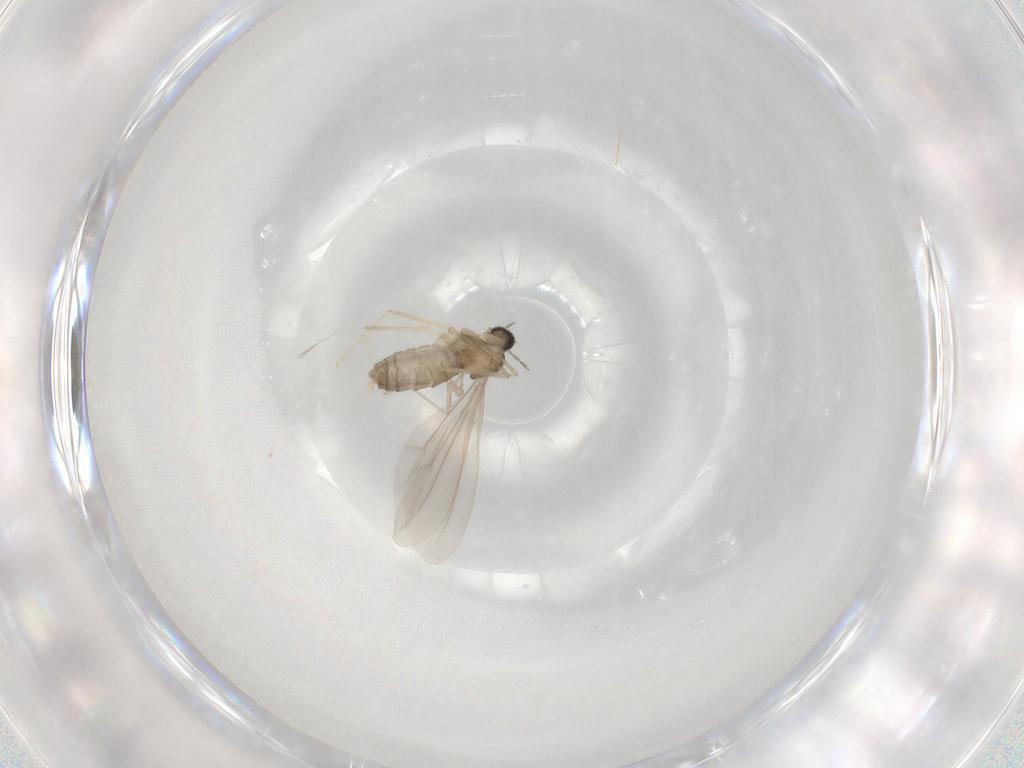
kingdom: Animalia
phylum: Arthropoda
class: Insecta
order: Diptera
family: Cecidomyiidae
